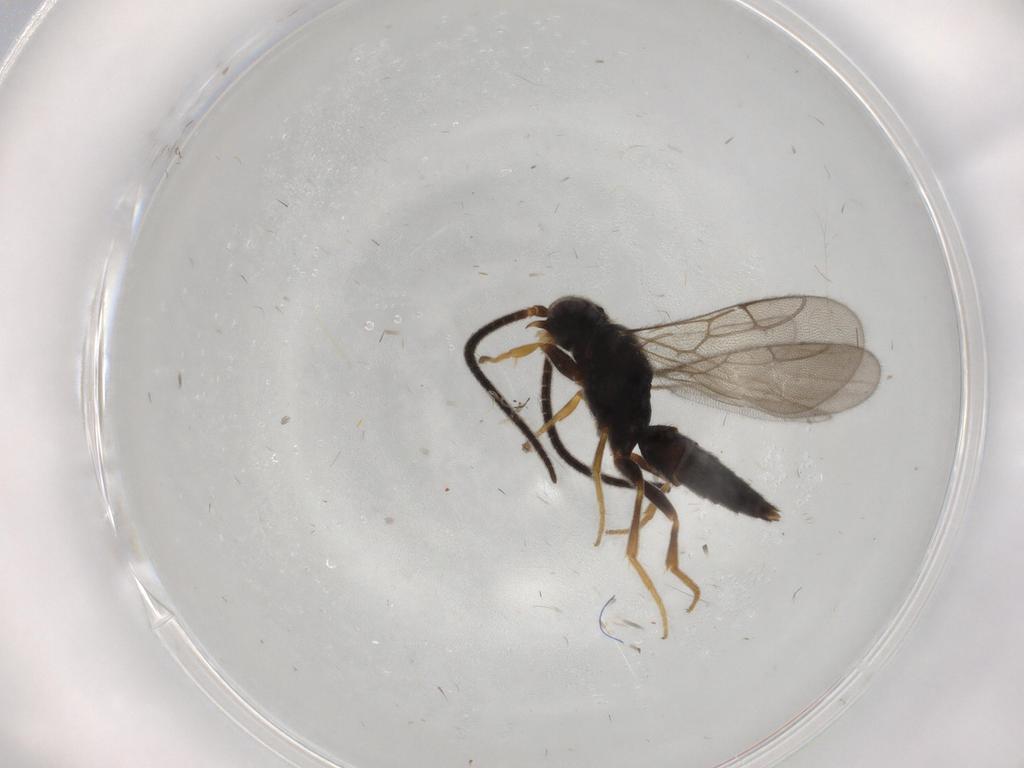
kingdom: Animalia
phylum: Arthropoda
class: Insecta
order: Hymenoptera
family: Sclerogibbidae
